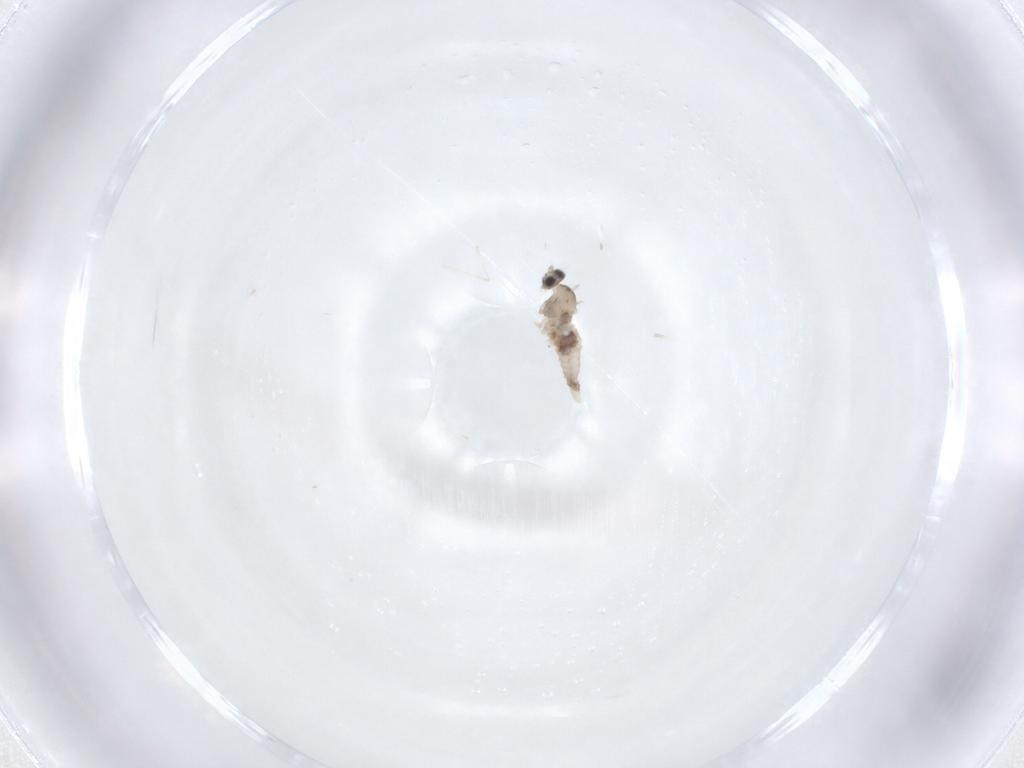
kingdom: Animalia
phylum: Arthropoda
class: Insecta
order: Diptera
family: Cecidomyiidae
